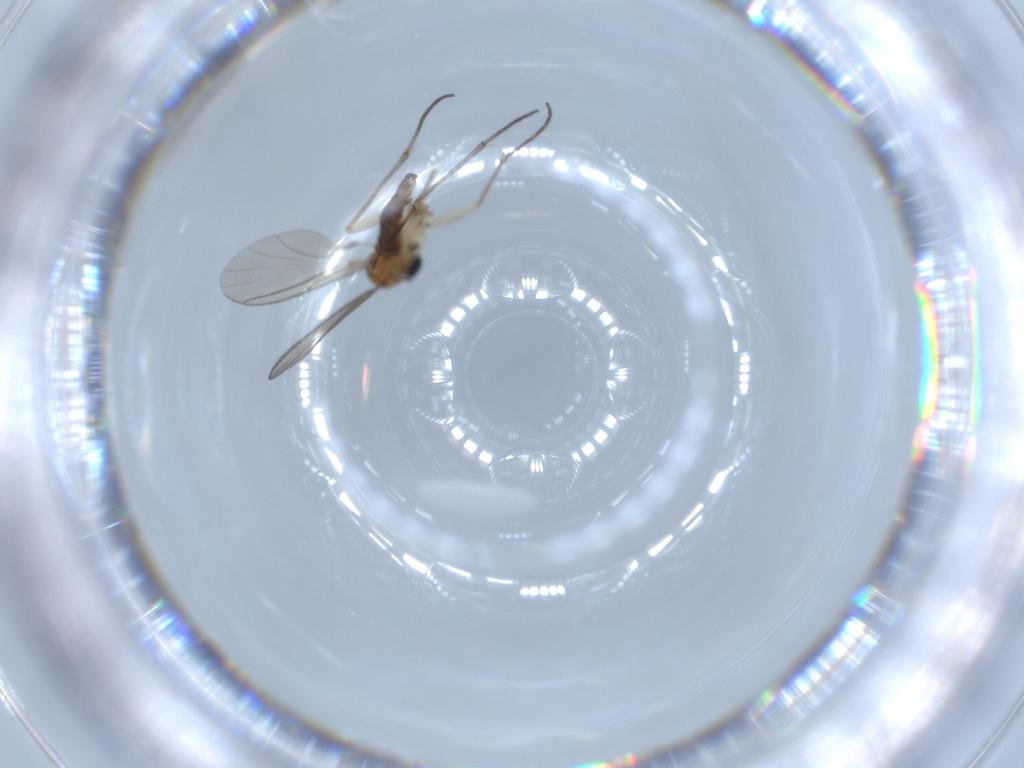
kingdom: Animalia
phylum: Arthropoda
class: Insecta
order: Diptera
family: Sciaridae
